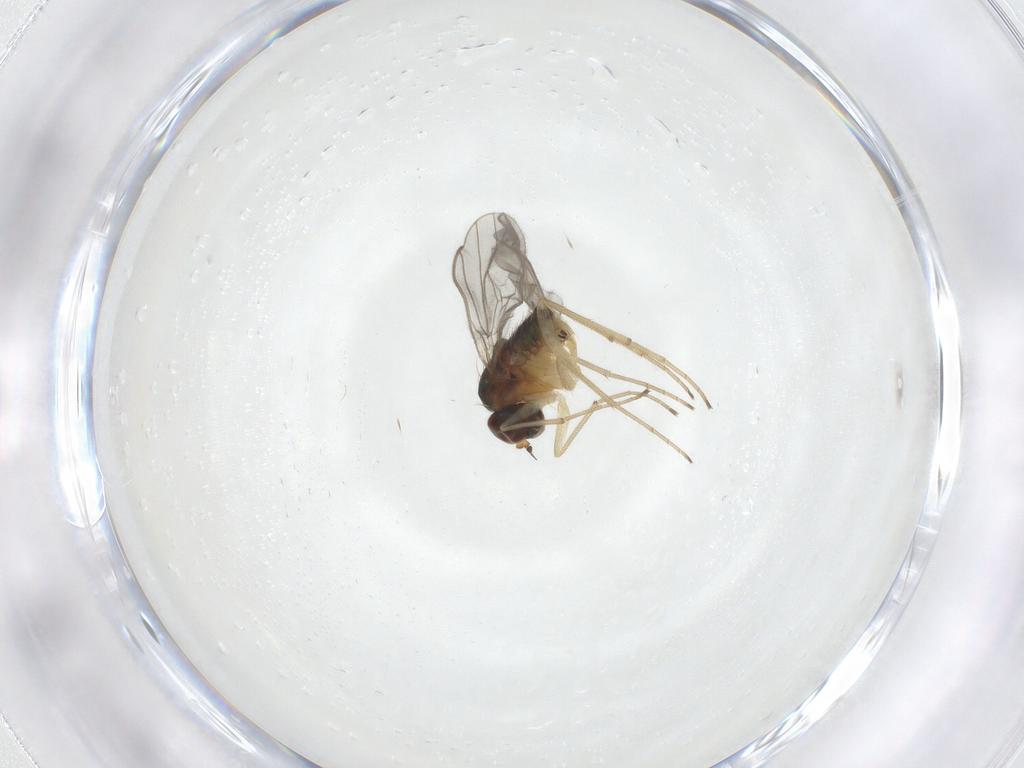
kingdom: Animalia
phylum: Arthropoda
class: Insecta
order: Diptera
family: Dolichopodidae
